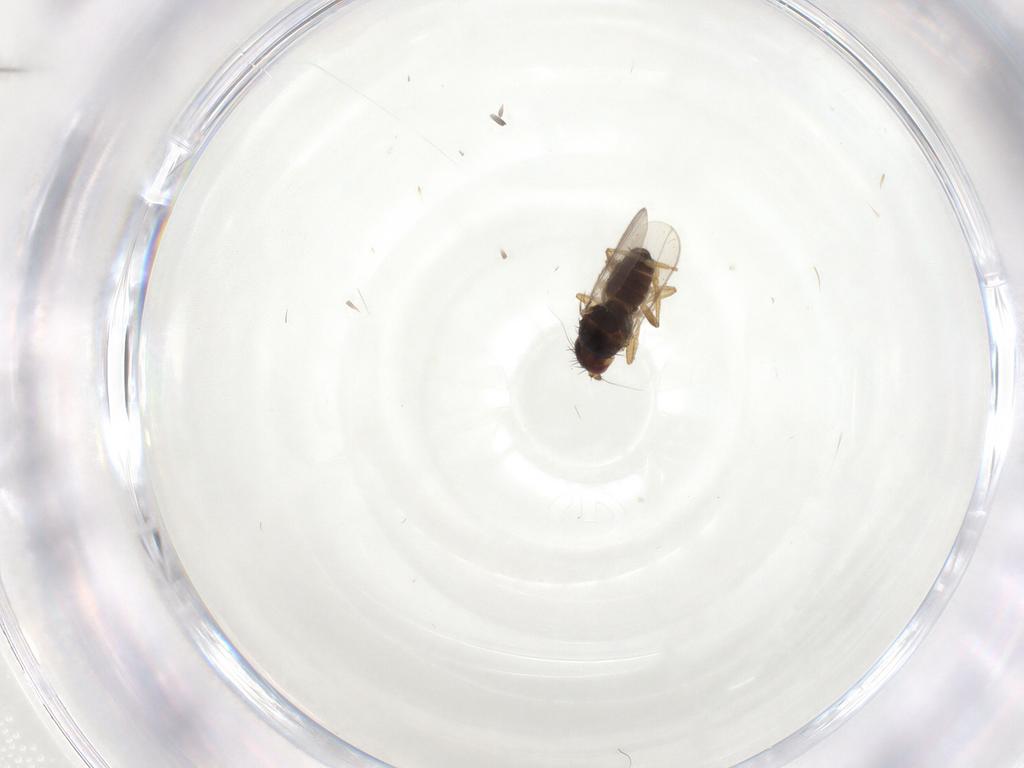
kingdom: Animalia
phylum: Arthropoda
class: Insecta
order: Diptera
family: Sphaeroceridae
